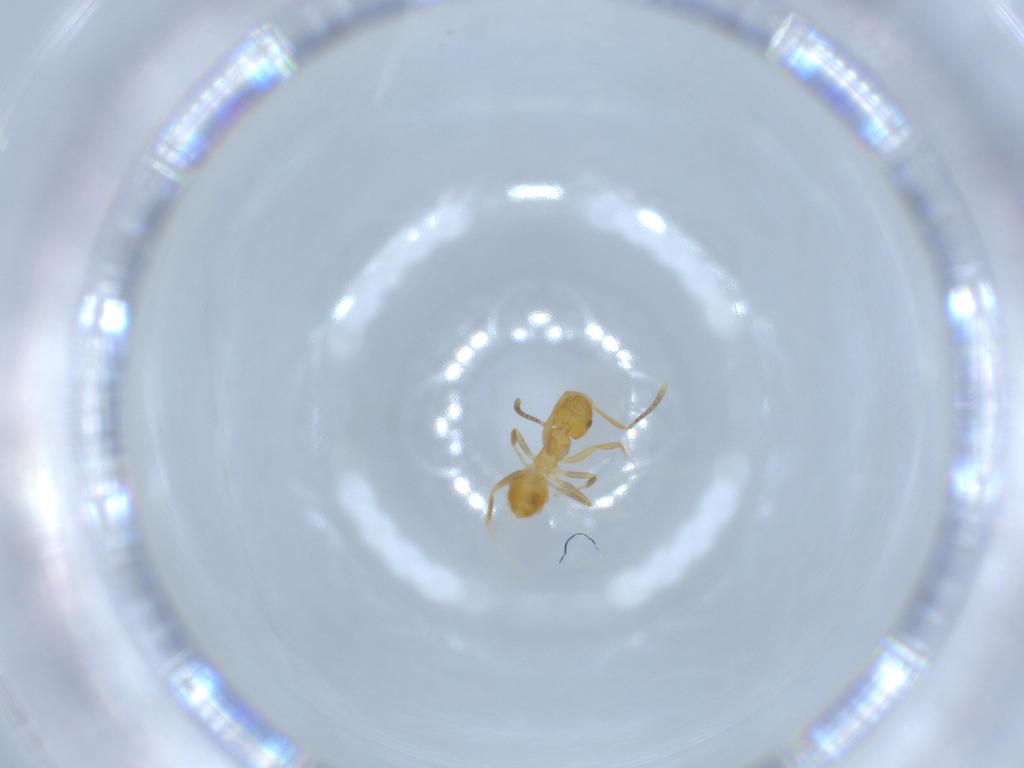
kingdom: Animalia
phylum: Arthropoda
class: Insecta
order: Hymenoptera
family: Formicidae
